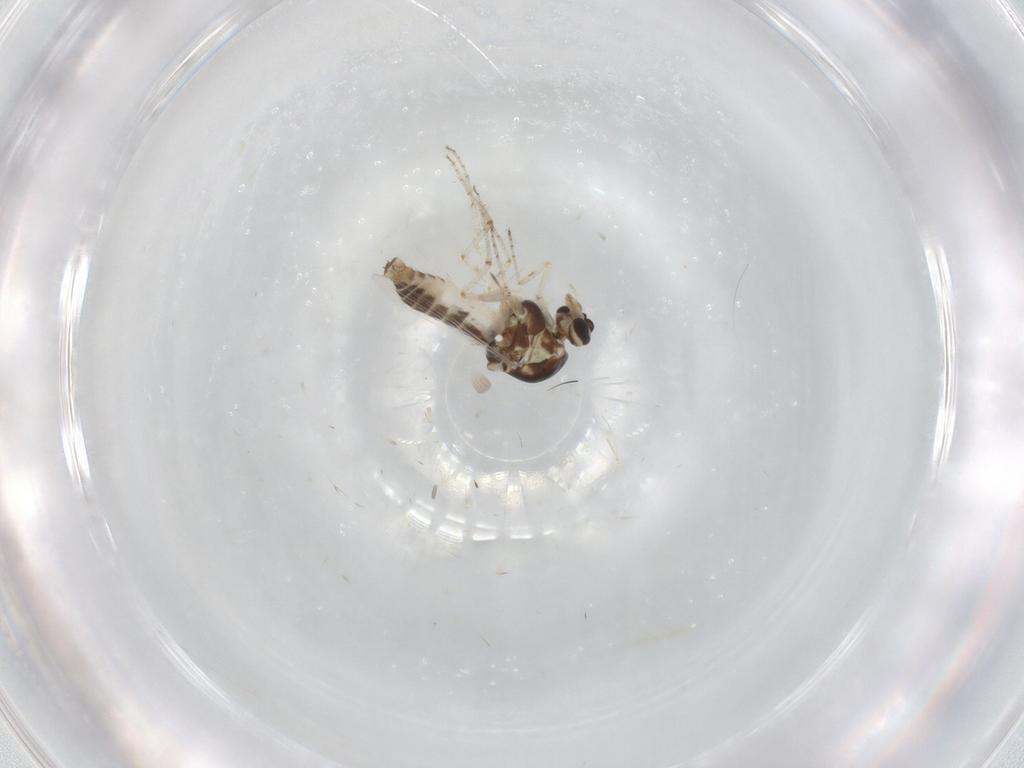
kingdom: Animalia
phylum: Arthropoda
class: Insecta
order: Diptera
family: Ceratopogonidae
